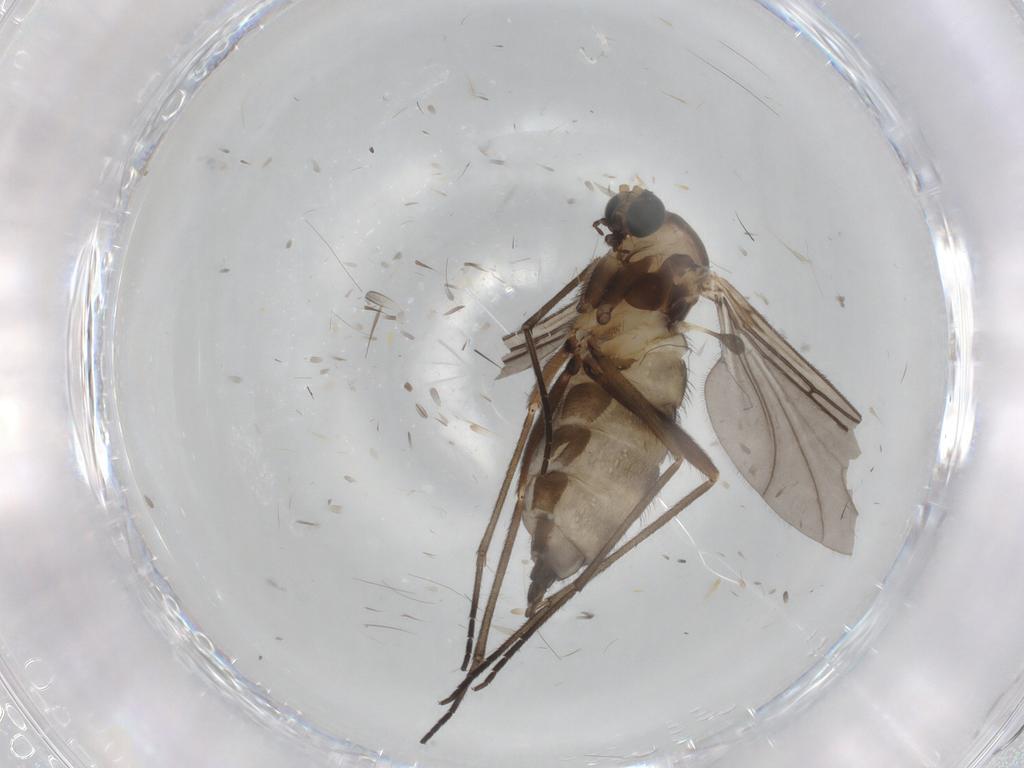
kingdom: Animalia
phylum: Arthropoda
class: Insecta
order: Diptera
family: Sciaridae
